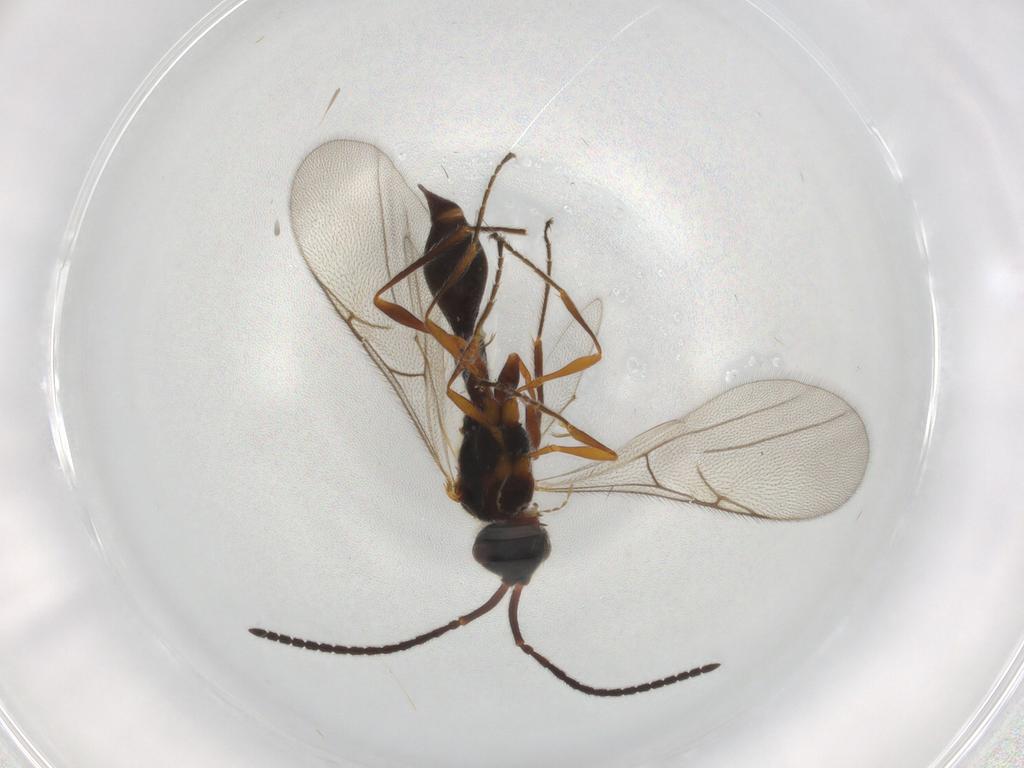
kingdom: Animalia
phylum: Arthropoda
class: Insecta
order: Hymenoptera
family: Diapriidae
